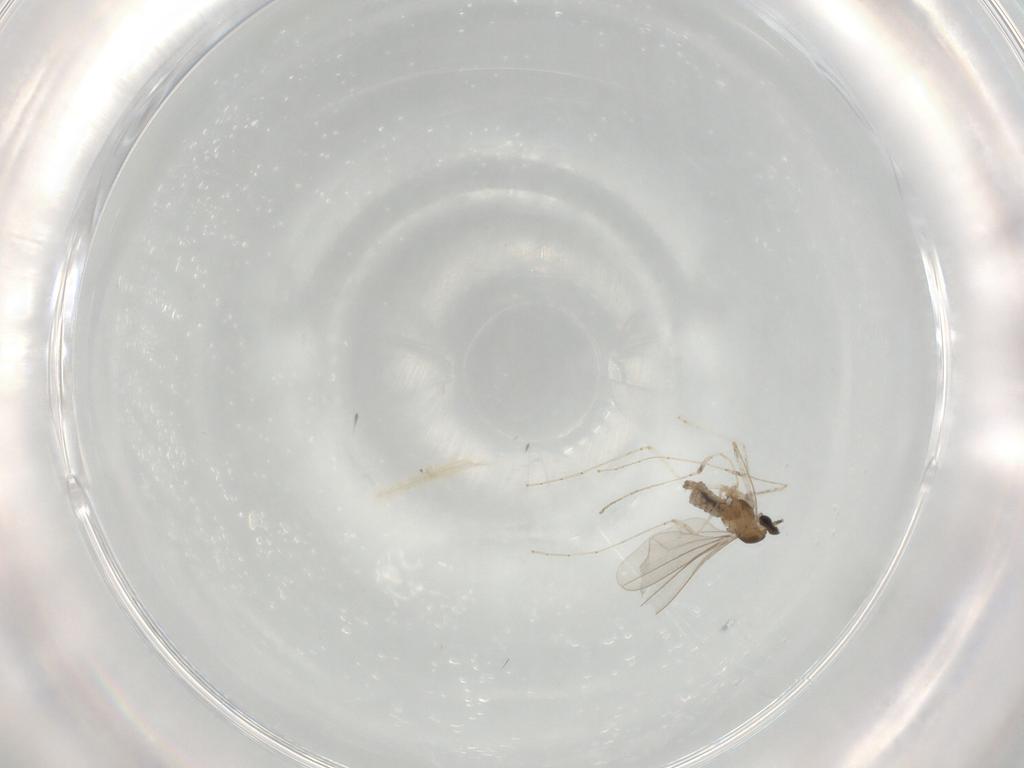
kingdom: Animalia
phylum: Arthropoda
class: Insecta
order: Diptera
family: Cecidomyiidae
